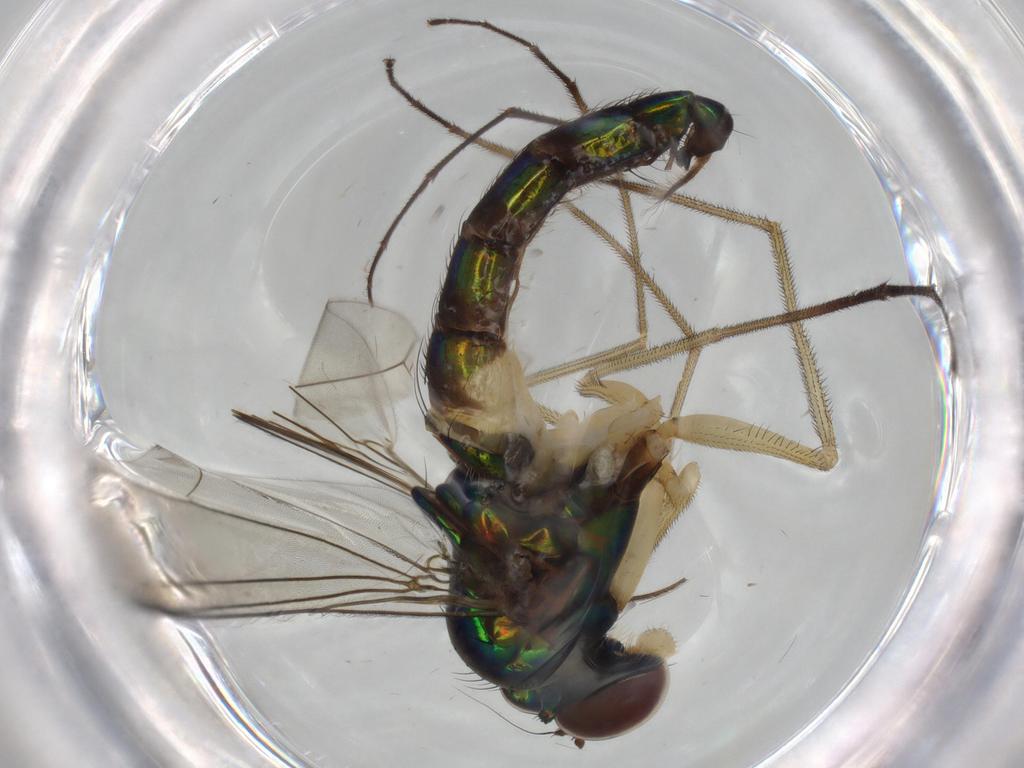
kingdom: Animalia
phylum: Arthropoda
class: Insecta
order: Diptera
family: Dolichopodidae
